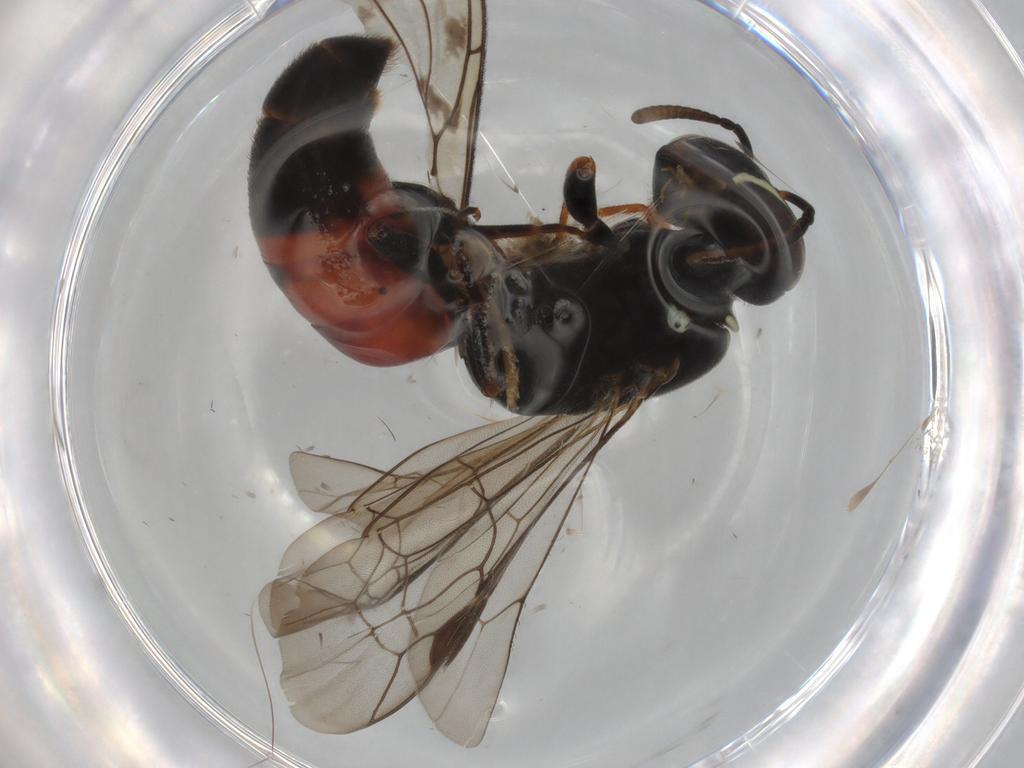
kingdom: Animalia
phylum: Arthropoda
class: Insecta
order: Hymenoptera
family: Colletidae
